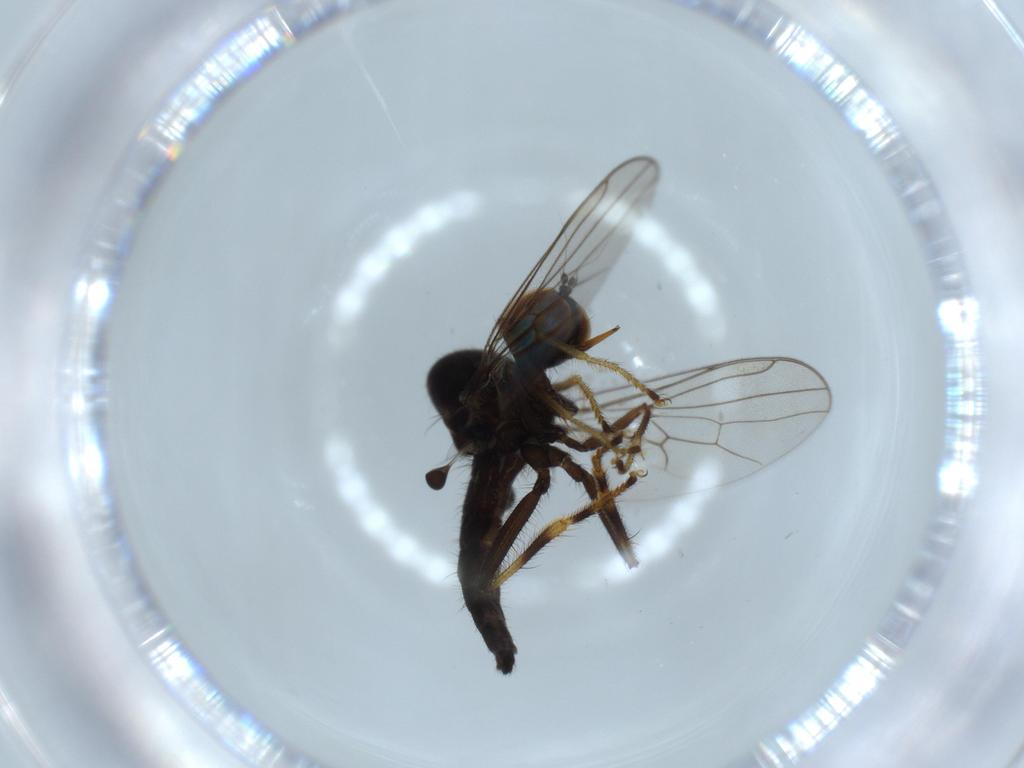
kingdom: Animalia
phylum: Arthropoda
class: Insecta
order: Diptera
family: Hybotidae
